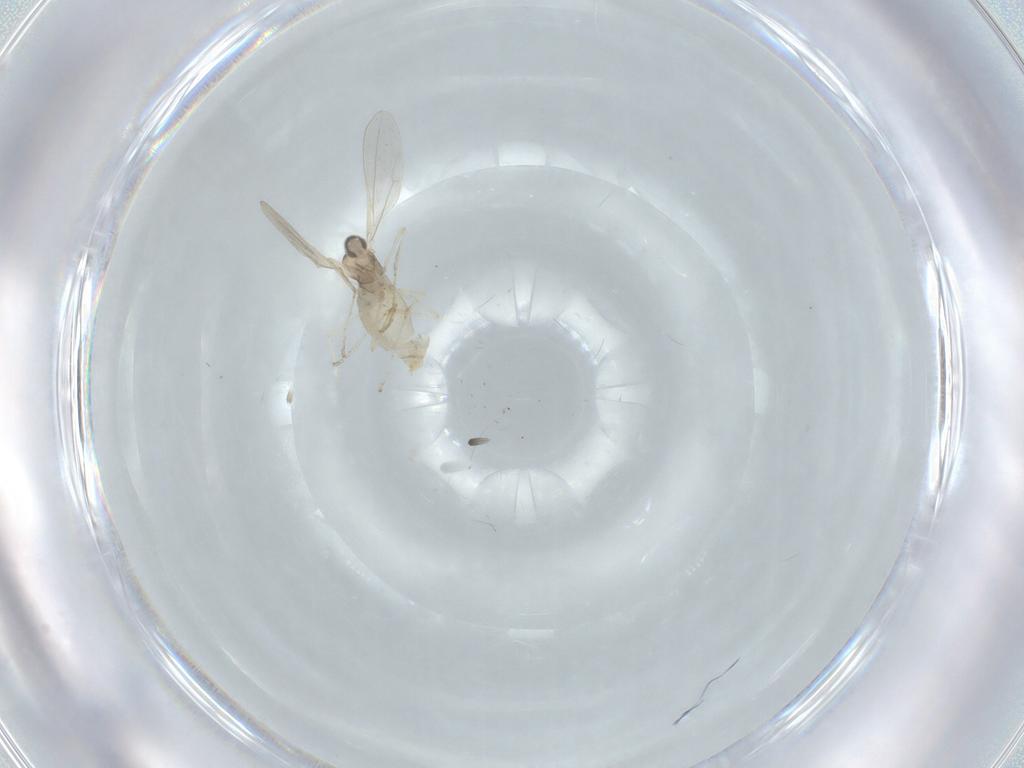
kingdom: Animalia
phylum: Arthropoda
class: Insecta
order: Diptera
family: Cecidomyiidae
